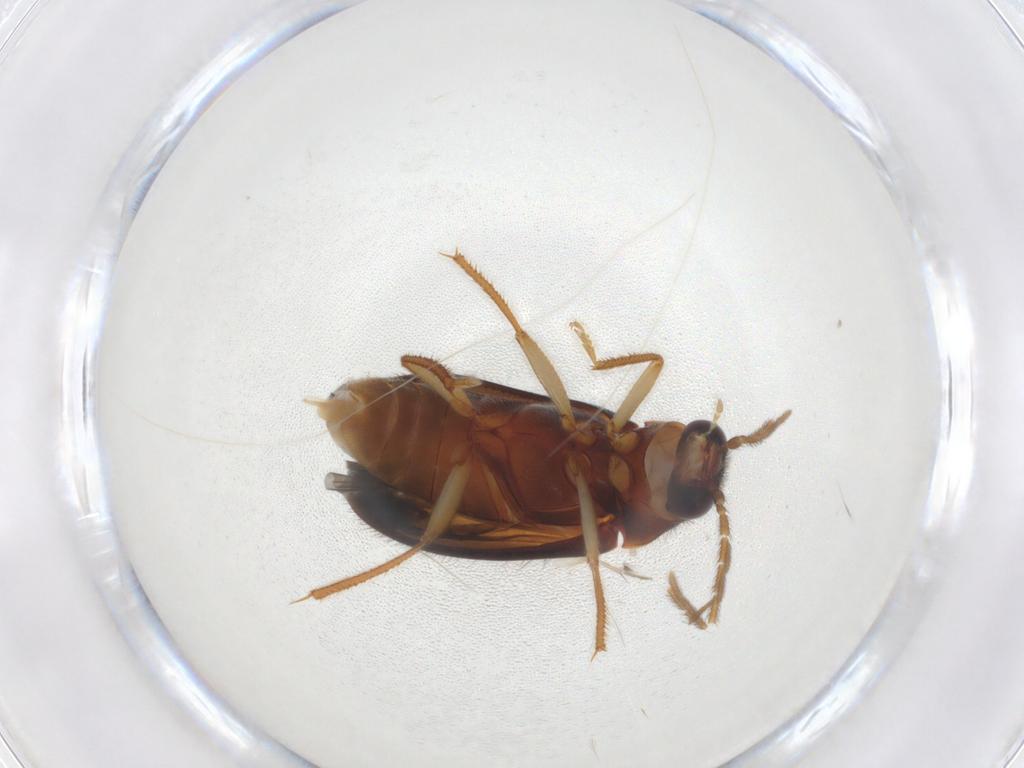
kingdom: Animalia
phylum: Arthropoda
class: Insecta
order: Coleoptera
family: Ptilodactylidae
